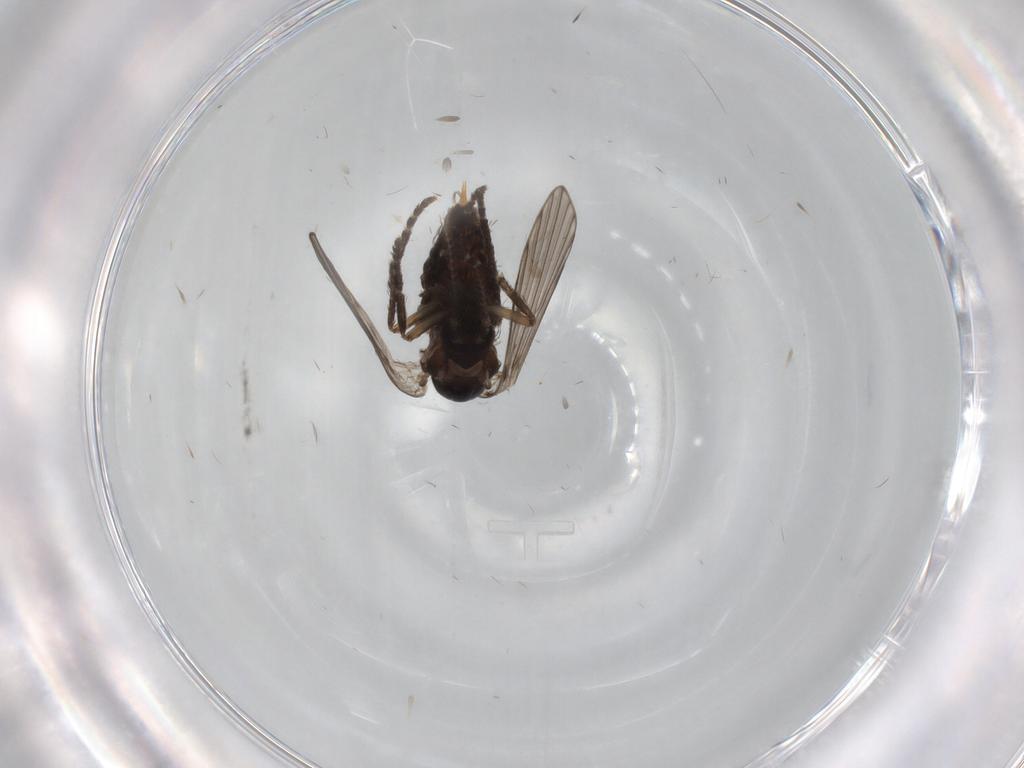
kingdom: Animalia
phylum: Arthropoda
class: Insecta
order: Diptera
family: Psychodidae
